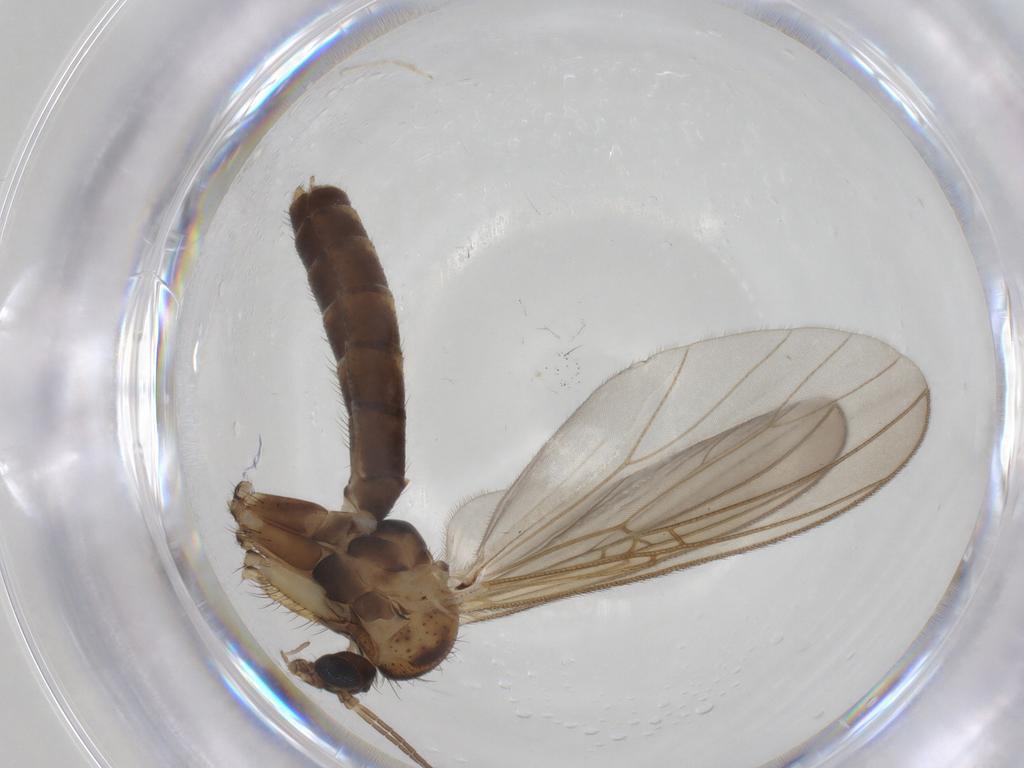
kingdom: Animalia
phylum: Arthropoda
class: Insecta
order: Diptera
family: Mycetophilidae
